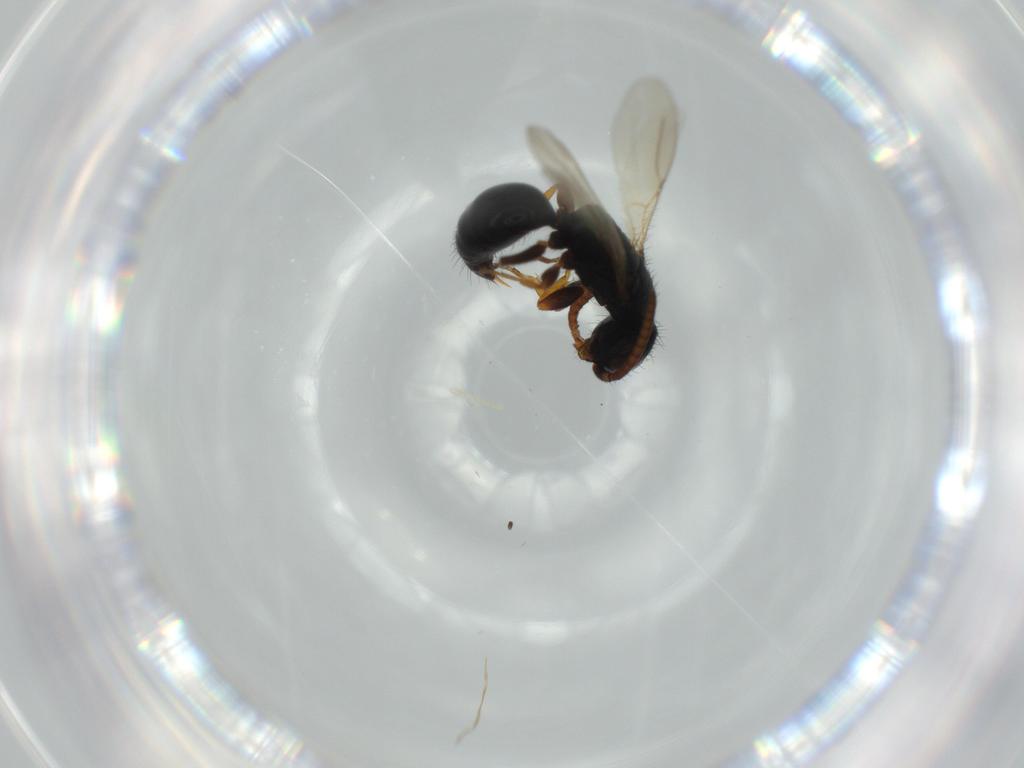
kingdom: Animalia
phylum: Arthropoda
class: Insecta
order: Hymenoptera
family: Bethylidae
